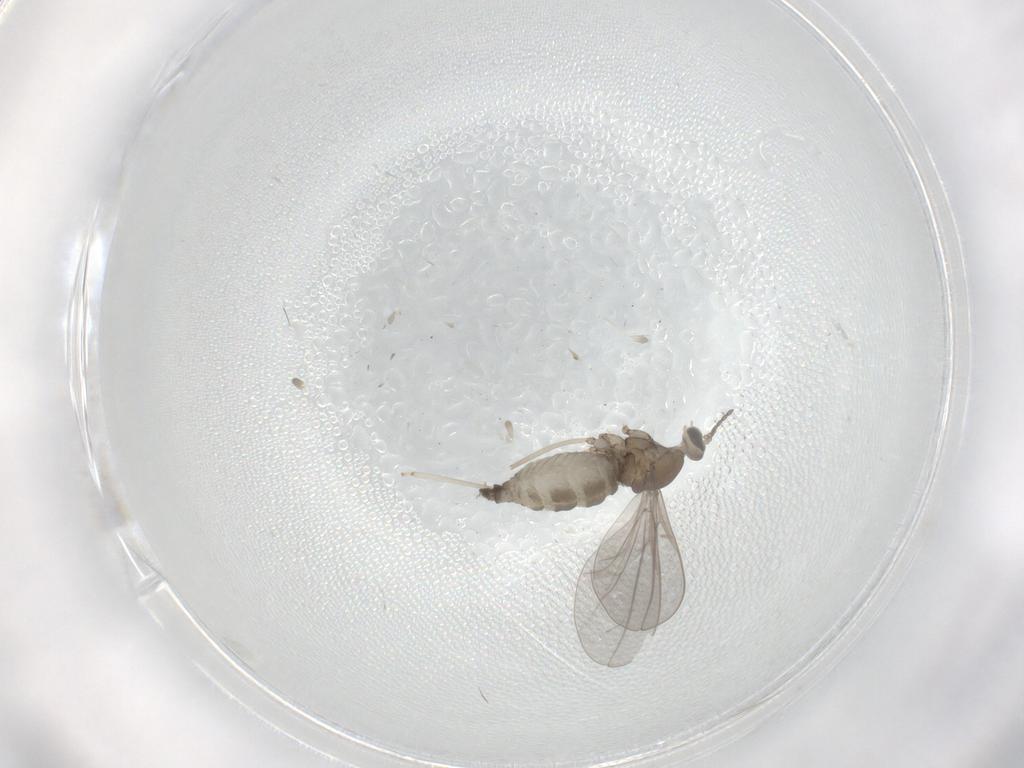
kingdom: Animalia
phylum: Arthropoda
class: Insecta
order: Diptera
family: Cecidomyiidae
